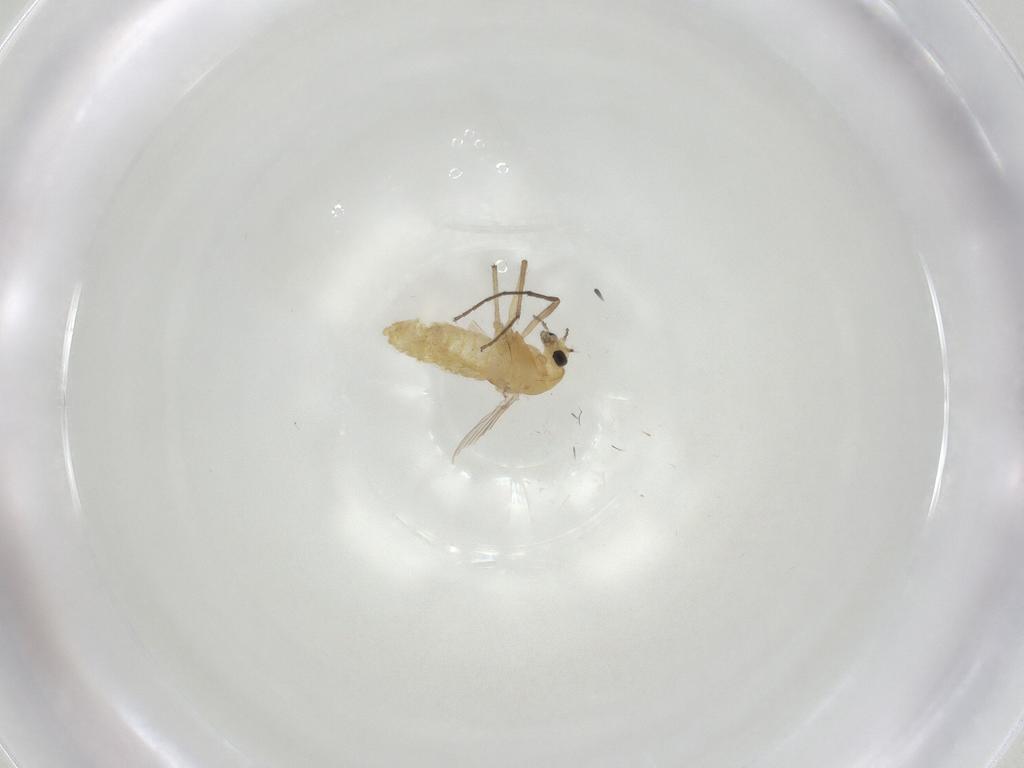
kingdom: Animalia
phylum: Arthropoda
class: Insecta
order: Diptera
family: Chironomidae
